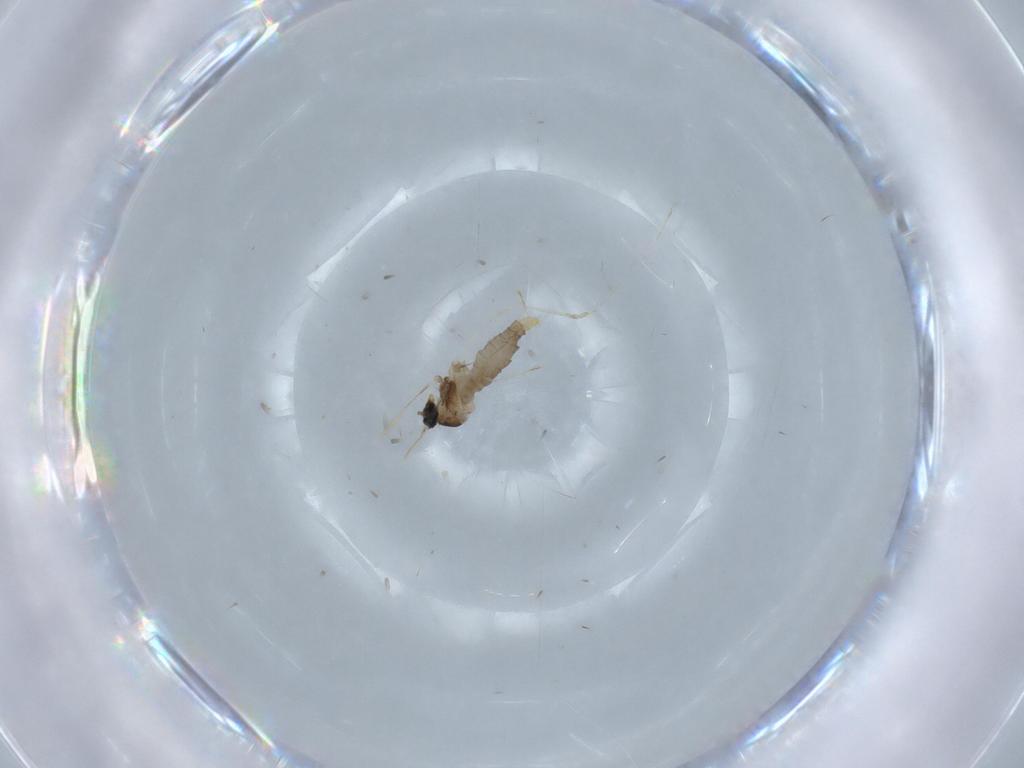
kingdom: Animalia
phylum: Arthropoda
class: Insecta
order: Diptera
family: Cecidomyiidae
